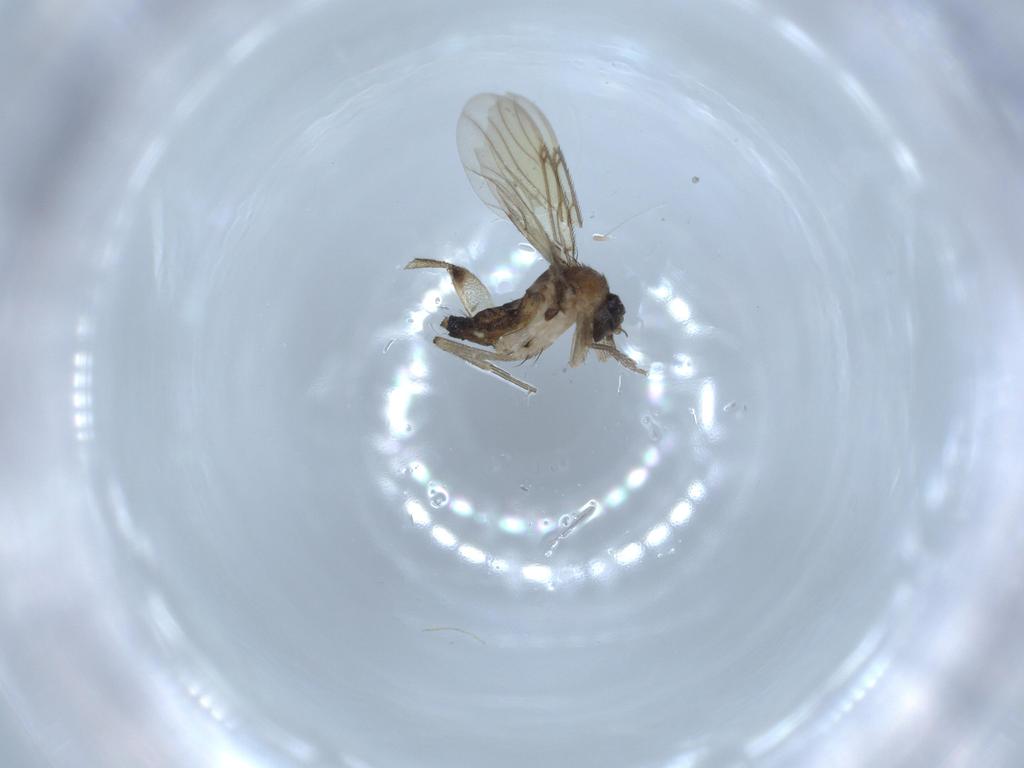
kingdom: Animalia
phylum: Arthropoda
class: Insecta
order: Diptera
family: Phoridae
